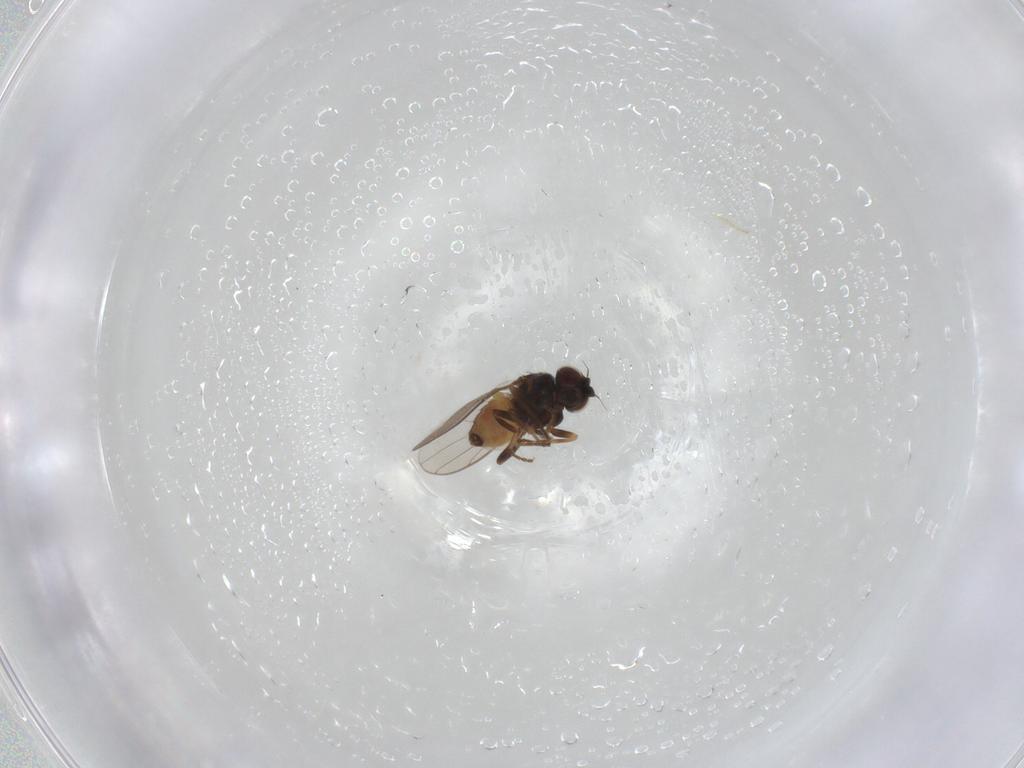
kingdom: Animalia
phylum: Arthropoda
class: Insecta
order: Diptera
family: Chloropidae
